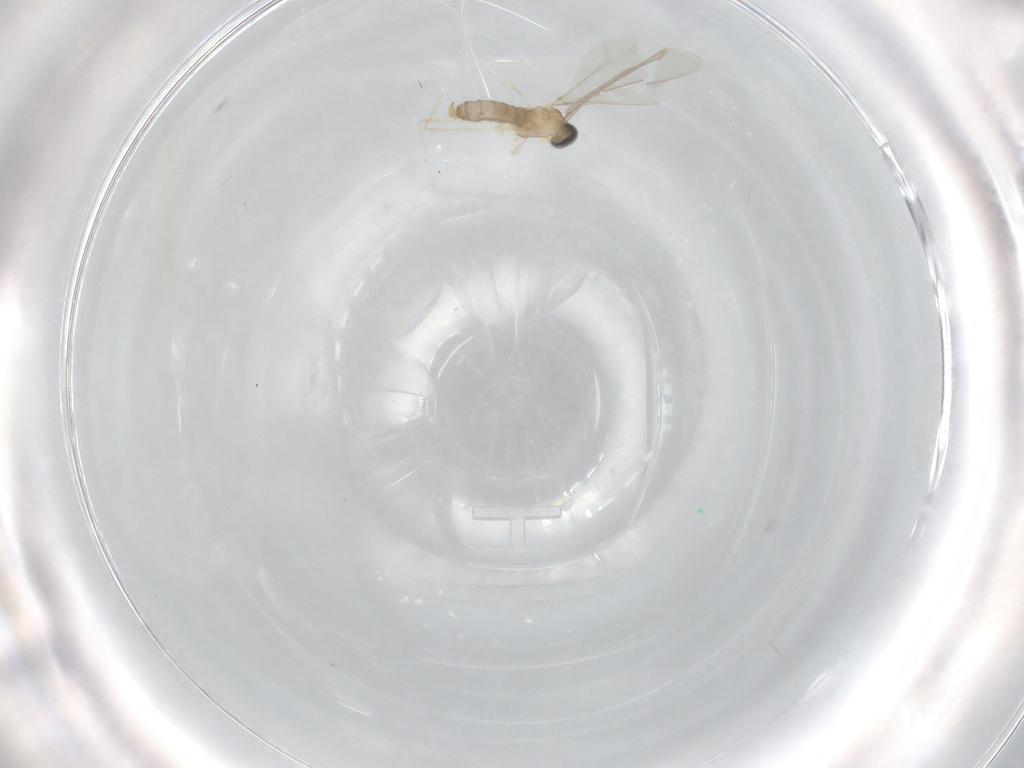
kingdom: Animalia
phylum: Arthropoda
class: Insecta
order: Diptera
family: Cecidomyiidae
